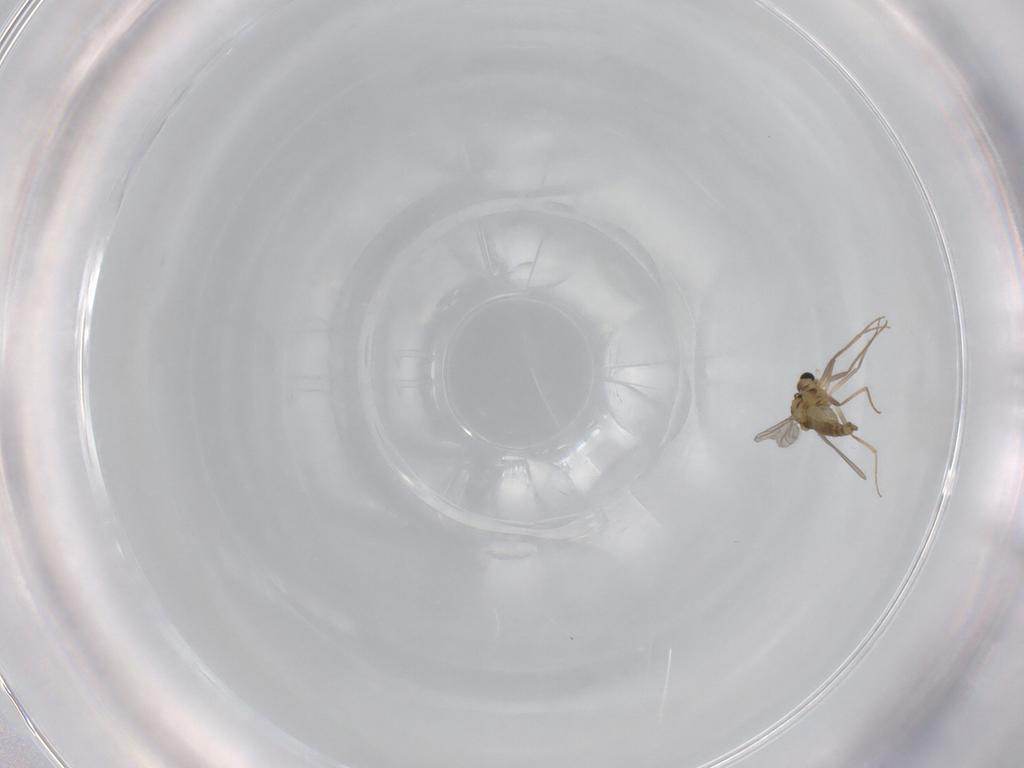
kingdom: Animalia
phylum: Arthropoda
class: Insecta
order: Diptera
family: Chironomidae
